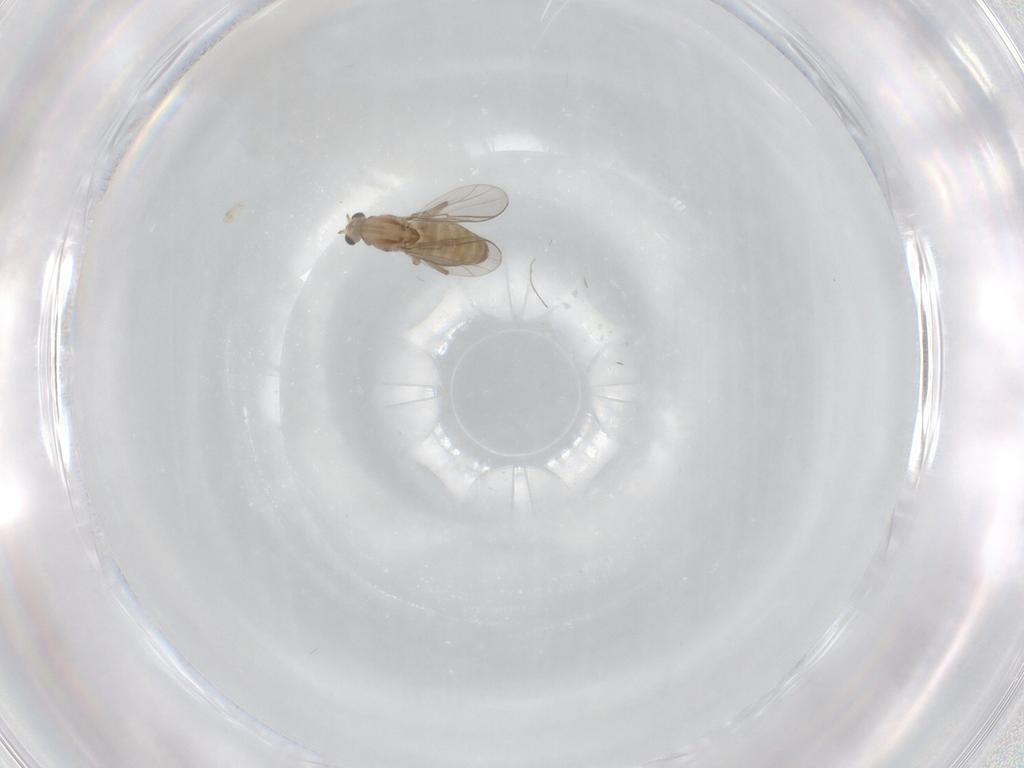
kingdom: Animalia
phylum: Arthropoda
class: Insecta
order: Diptera
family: Chironomidae
